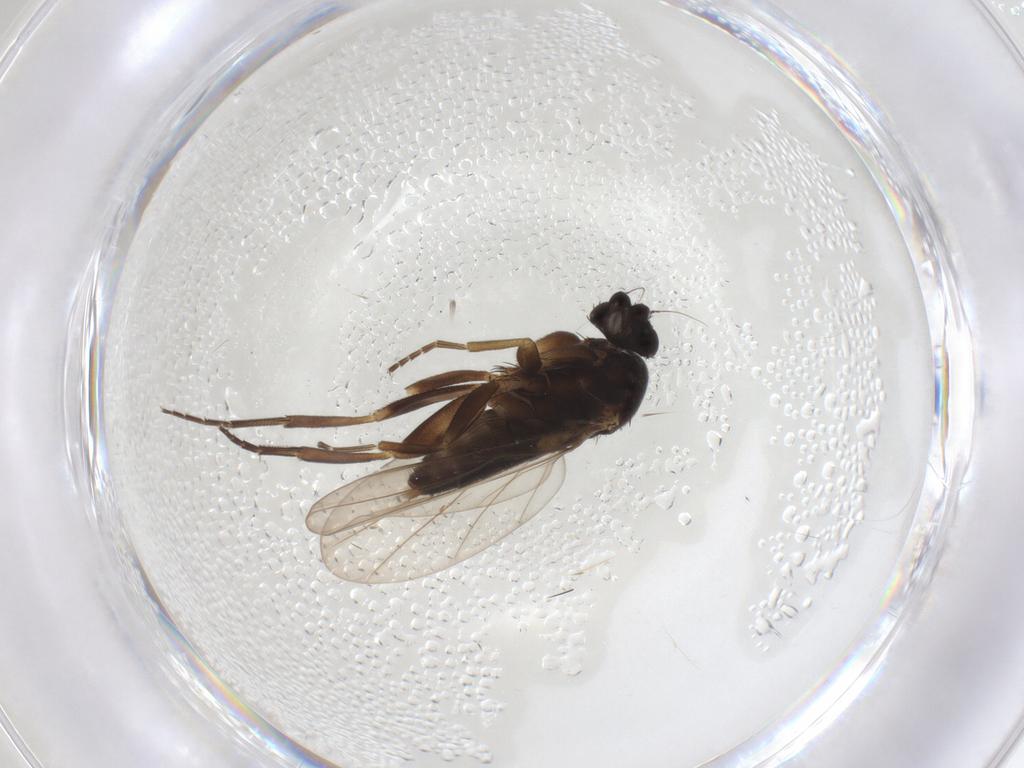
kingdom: Animalia
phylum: Arthropoda
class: Insecta
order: Diptera
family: Phoridae
